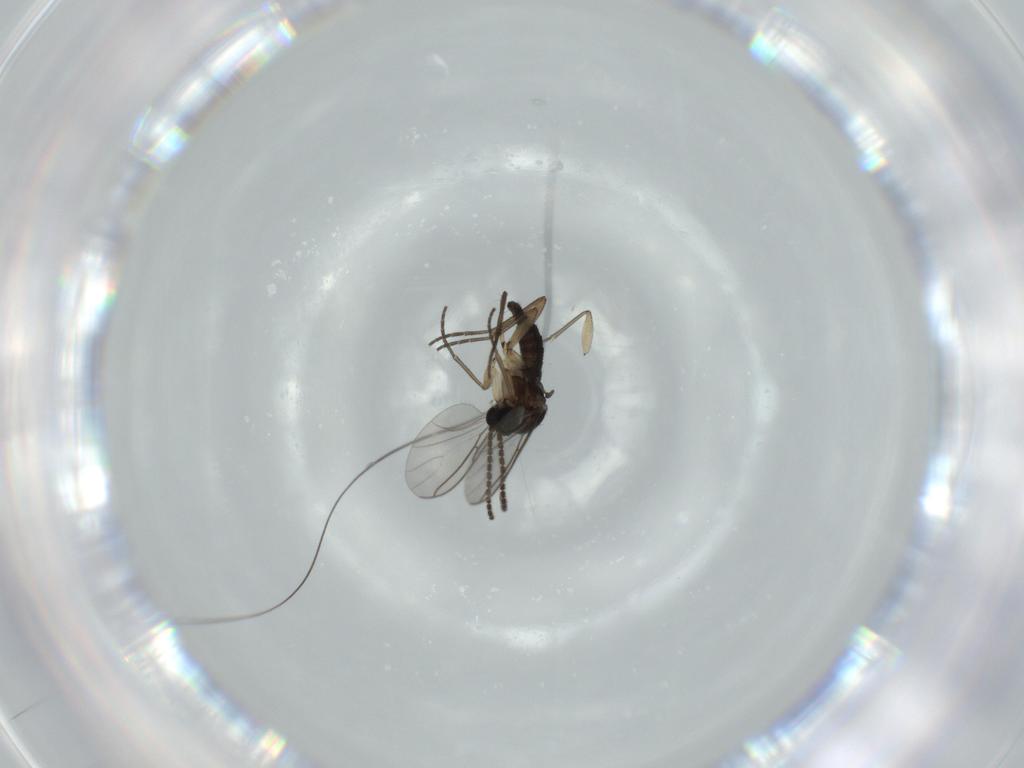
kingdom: Animalia
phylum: Arthropoda
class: Insecta
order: Diptera
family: Sciaridae
